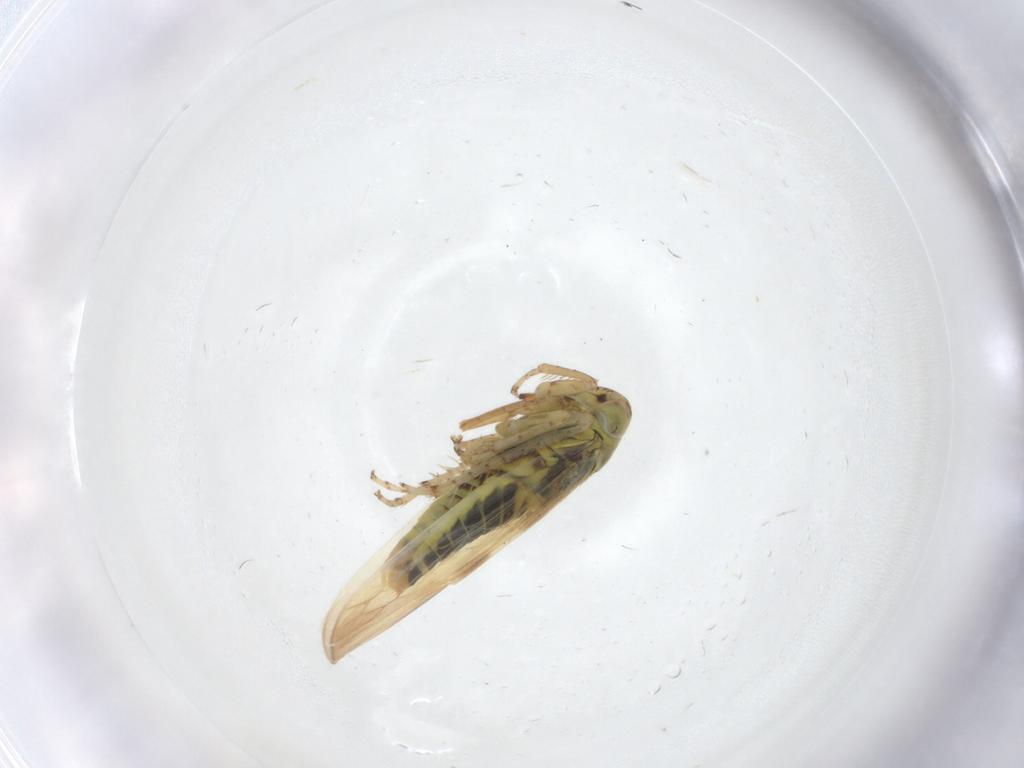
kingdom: Animalia
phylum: Arthropoda
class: Insecta
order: Hemiptera
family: Cicadellidae
